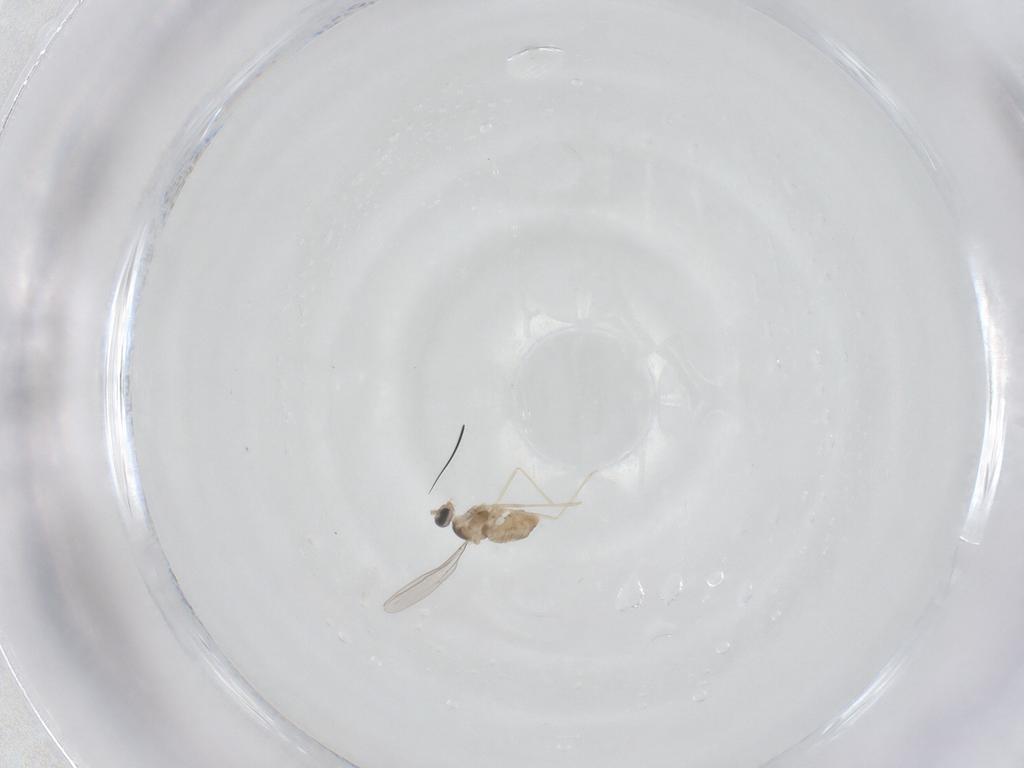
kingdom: Animalia
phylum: Arthropoda
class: Insecta
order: Diptera
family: Cecidomyiidae
